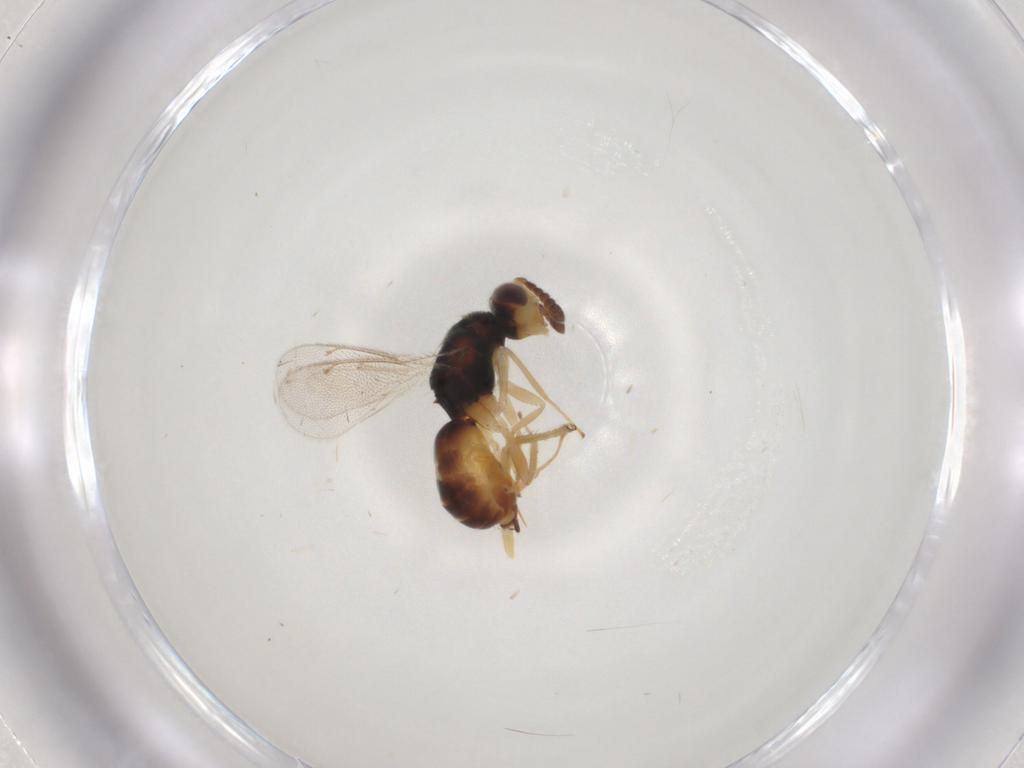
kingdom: Animalia
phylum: Arthropoda
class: Insecta
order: Hymenoptera
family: Eulophidae
